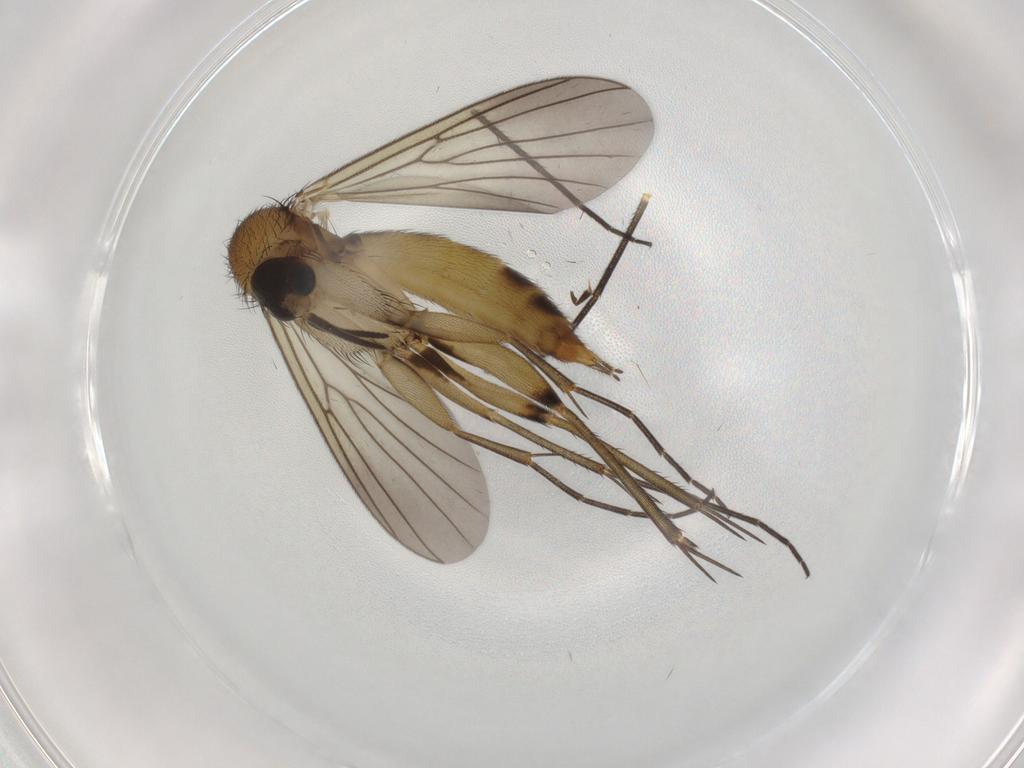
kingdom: Animalia
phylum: Arthropoda
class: Insecta
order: Diptera
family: Mycetophilidae
